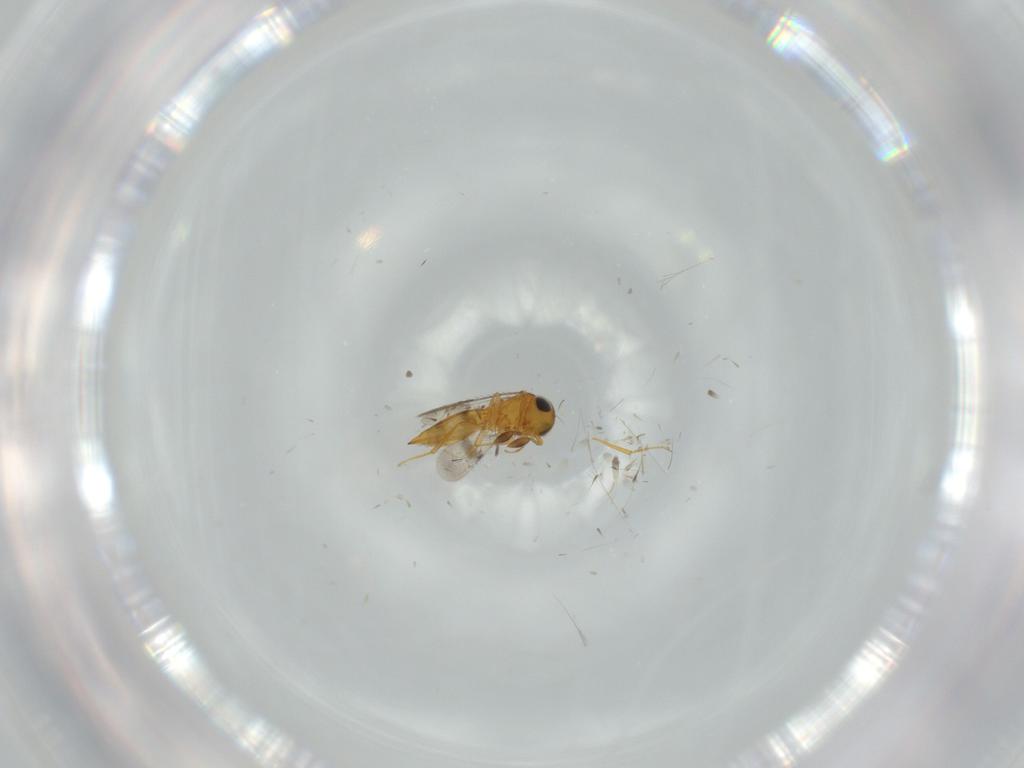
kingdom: Animalia
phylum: Arthropoda
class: Insecta
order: Hymenoptera
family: Scelionidae
